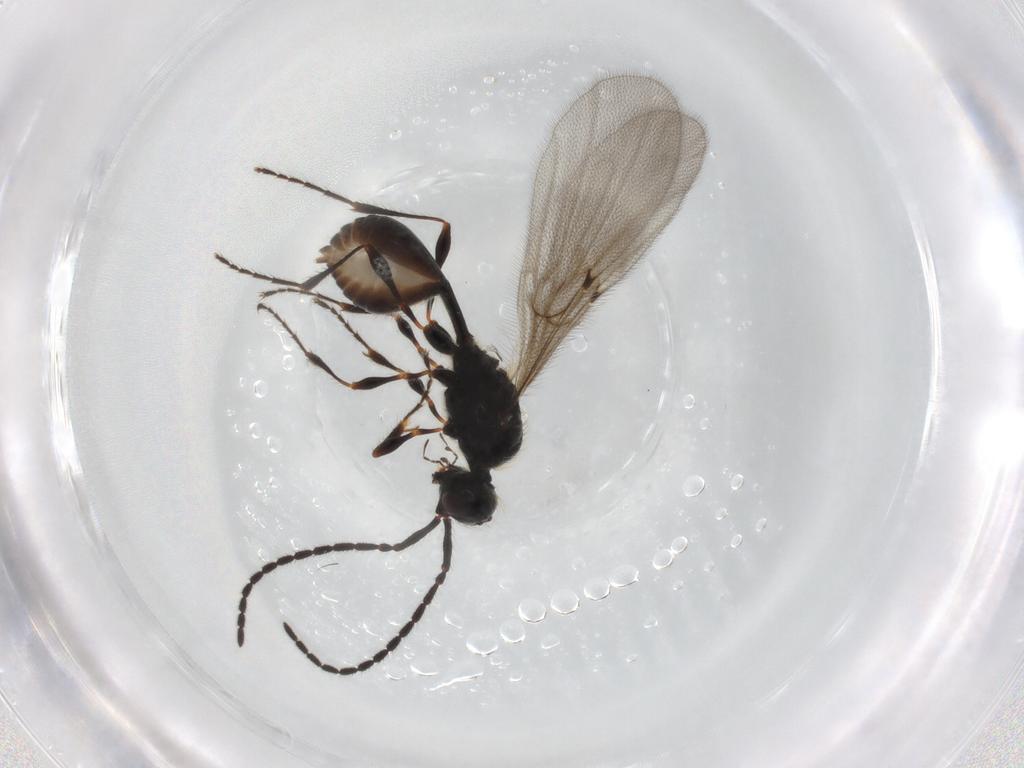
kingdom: Animalia
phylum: Arthropoda
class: Insecta
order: Hymenoptera
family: Diapriidae
